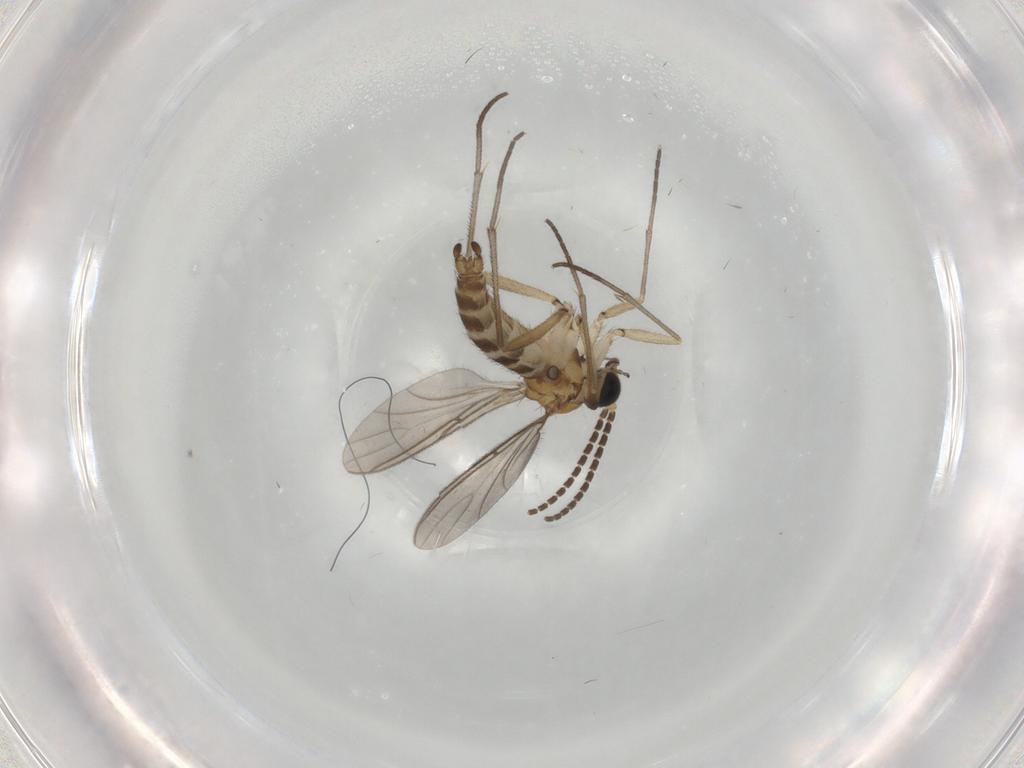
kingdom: Animalia
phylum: Arthropoda
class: Insecta
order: Diptera
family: Sciaridae
